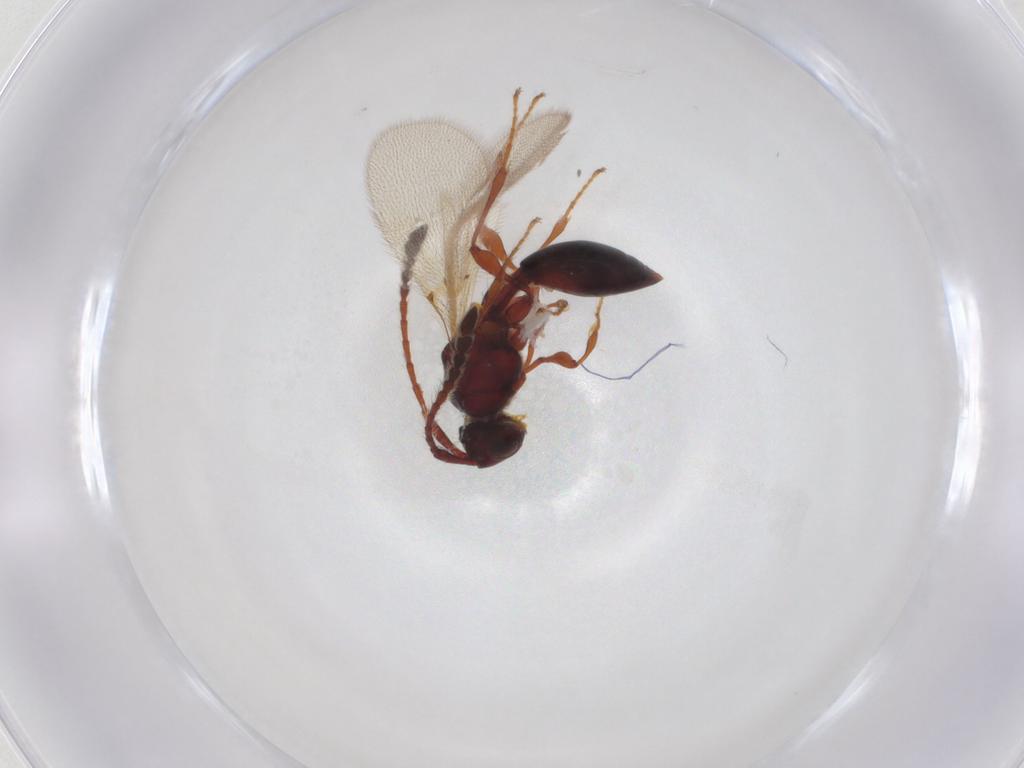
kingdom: Animalia
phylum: Arthropoda
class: Insecta
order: Hymenoptera
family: Diapriidae
